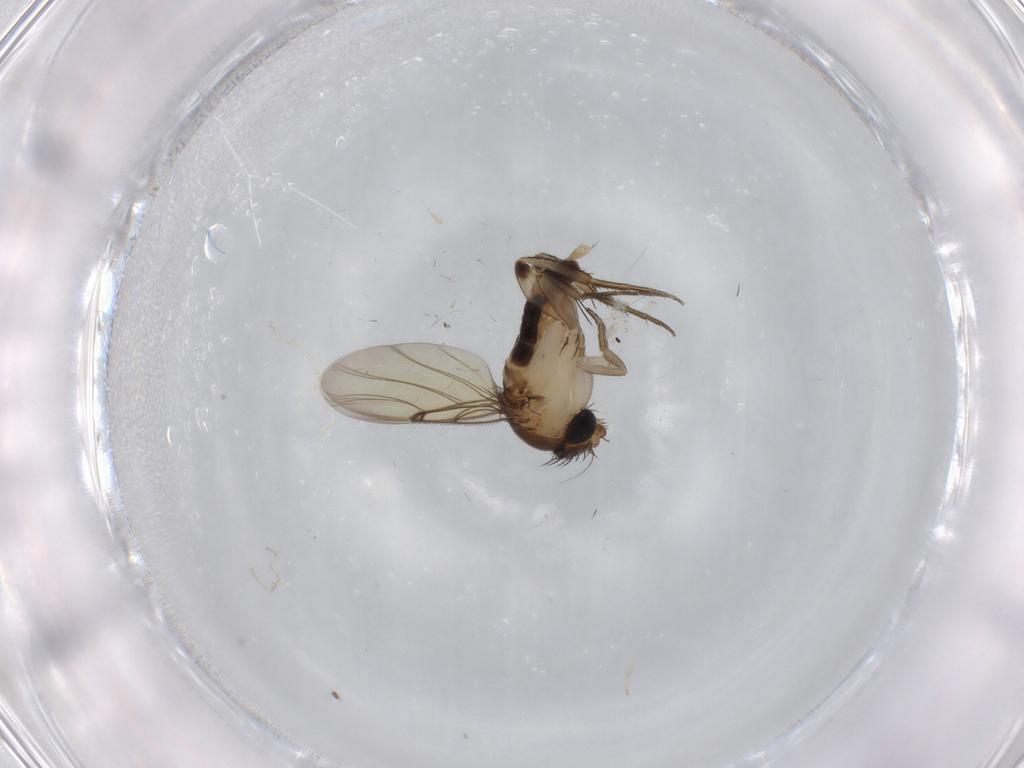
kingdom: Animalia
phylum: Arthropoda
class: Insecta
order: Diptera
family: Phoridae
